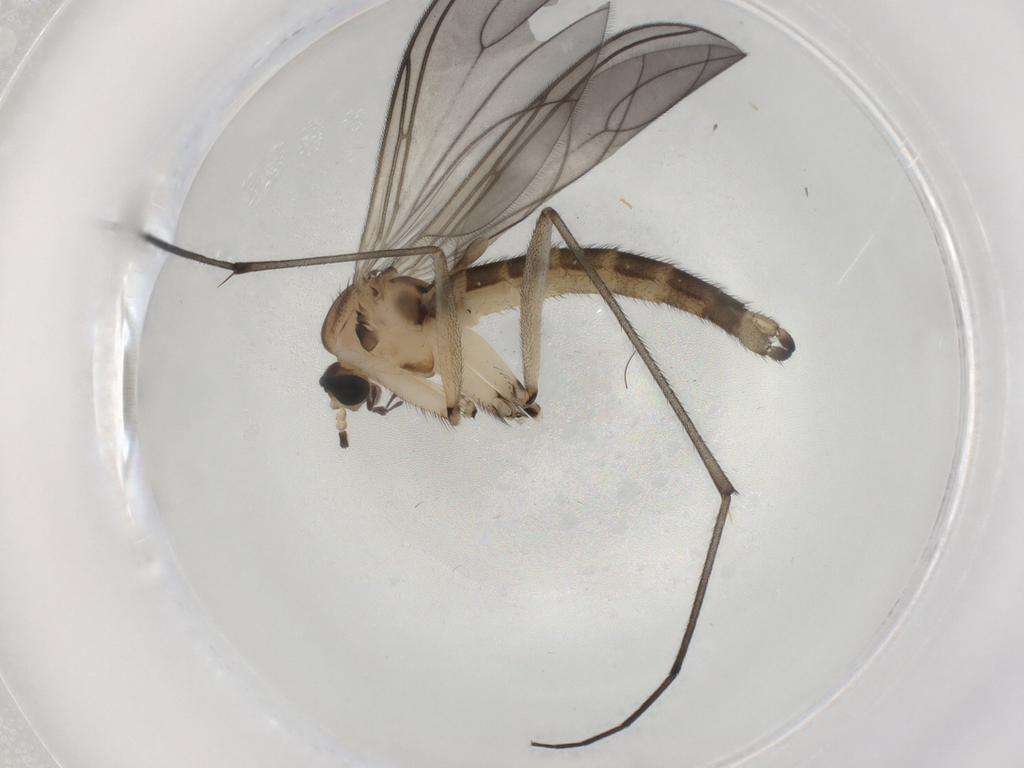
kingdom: Animalia
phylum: Arthropoda
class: Insecta
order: Diptera
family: Sciaridae
